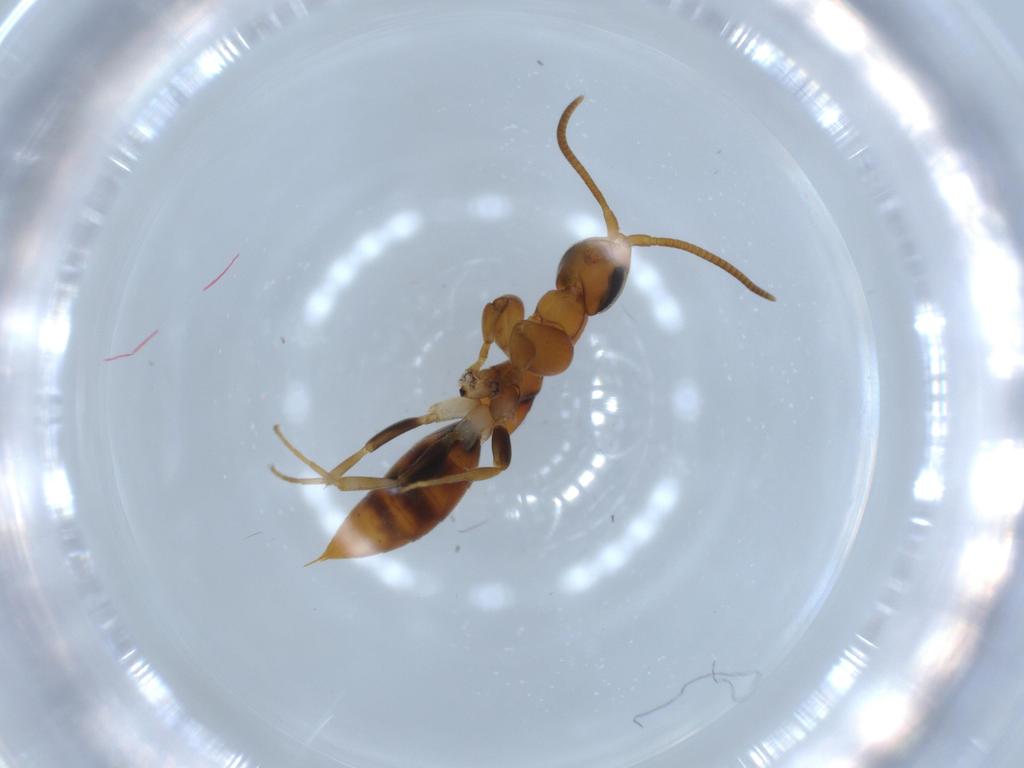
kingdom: Animalia
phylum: Arthropoda
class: Insecta
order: Hymenoptera
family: Sclerogibbidae
